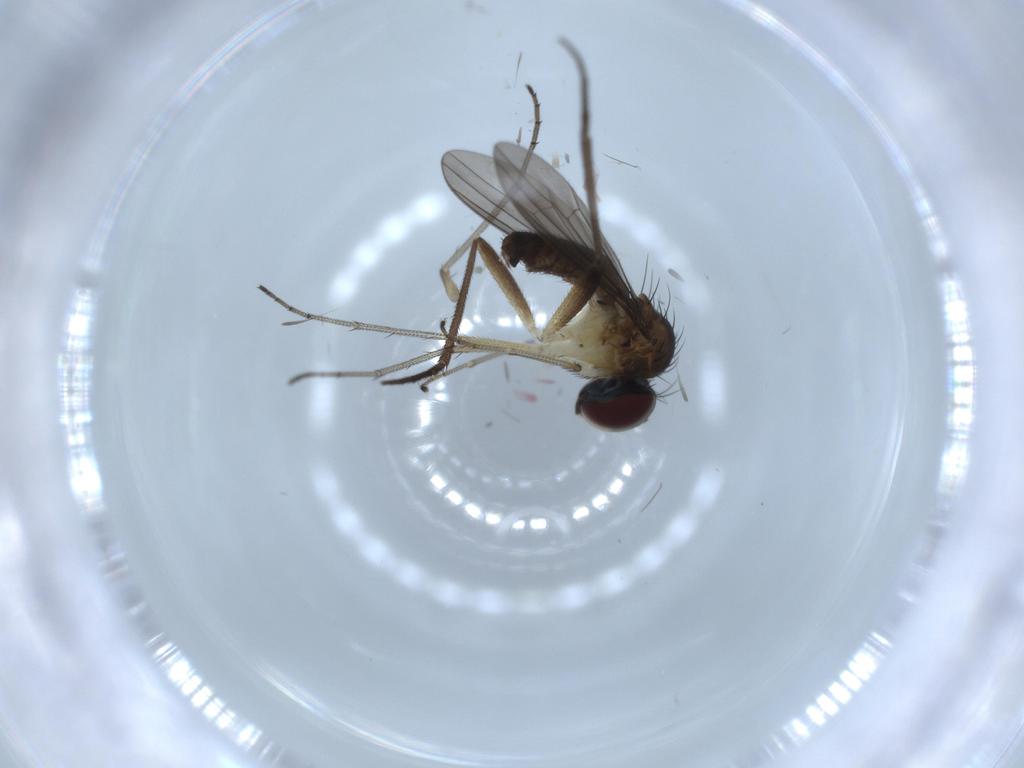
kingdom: Animalia
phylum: Arthropoda
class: Insecta
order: Diptera
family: Dolichopodidae
